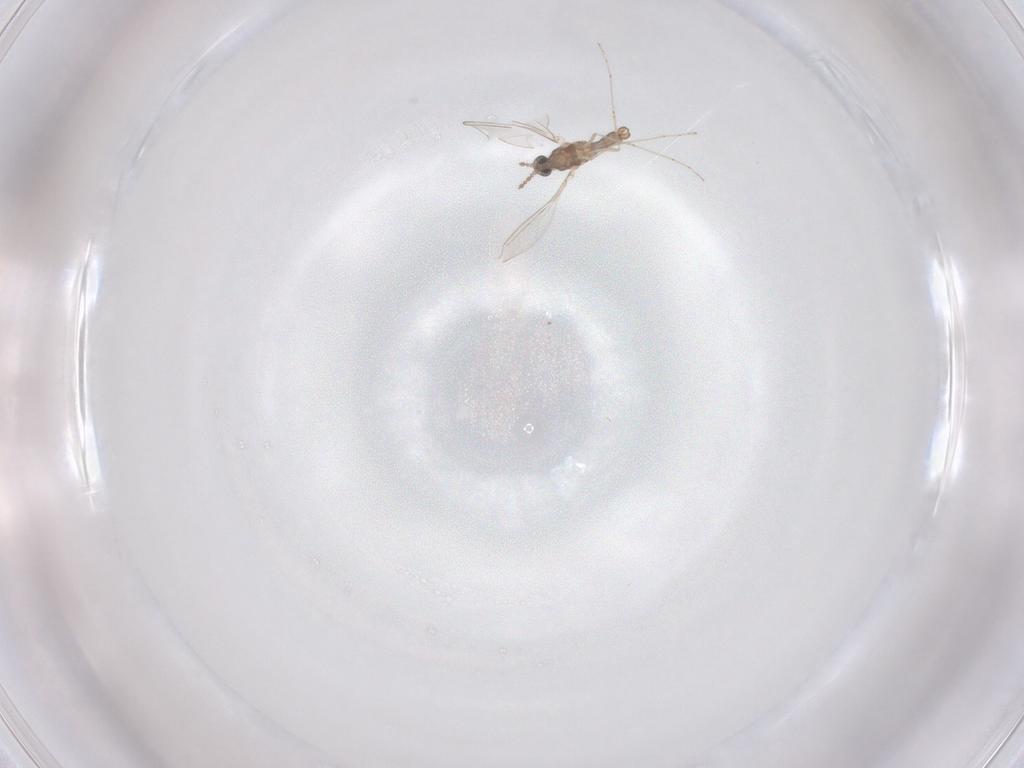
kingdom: Animalia
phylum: Arthropoda
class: Insecta
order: Diptera
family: Cecidomyiidae
